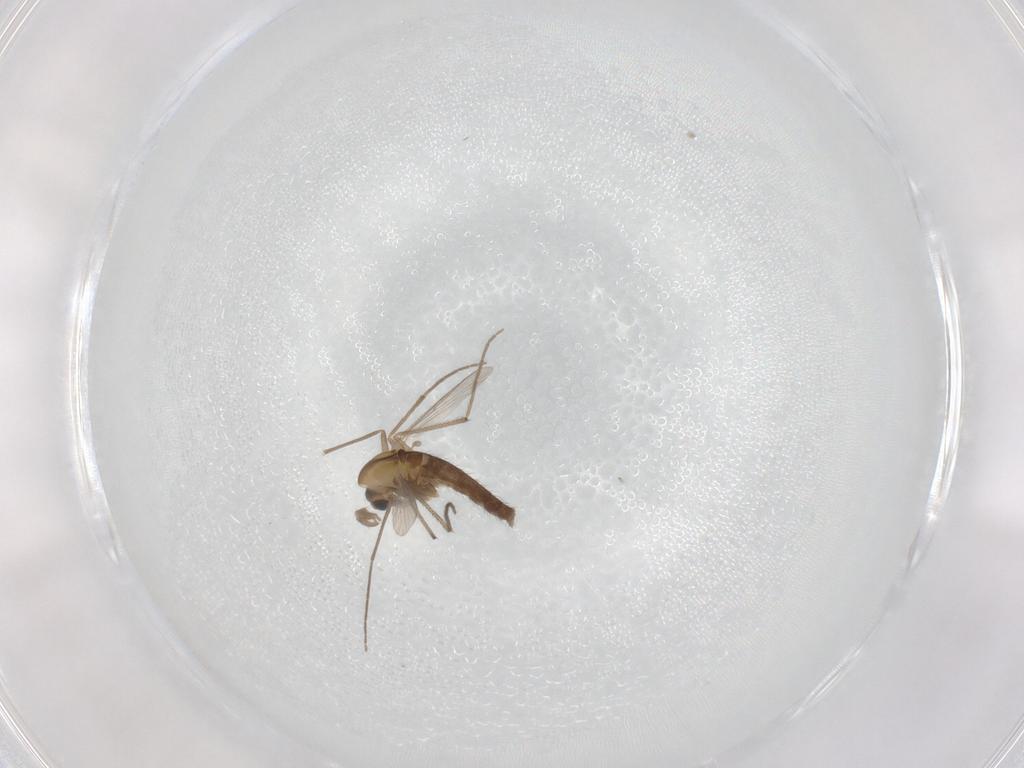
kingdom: Animalia
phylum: Arthropoda
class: Insecta
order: Diptera
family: Chironomidae
